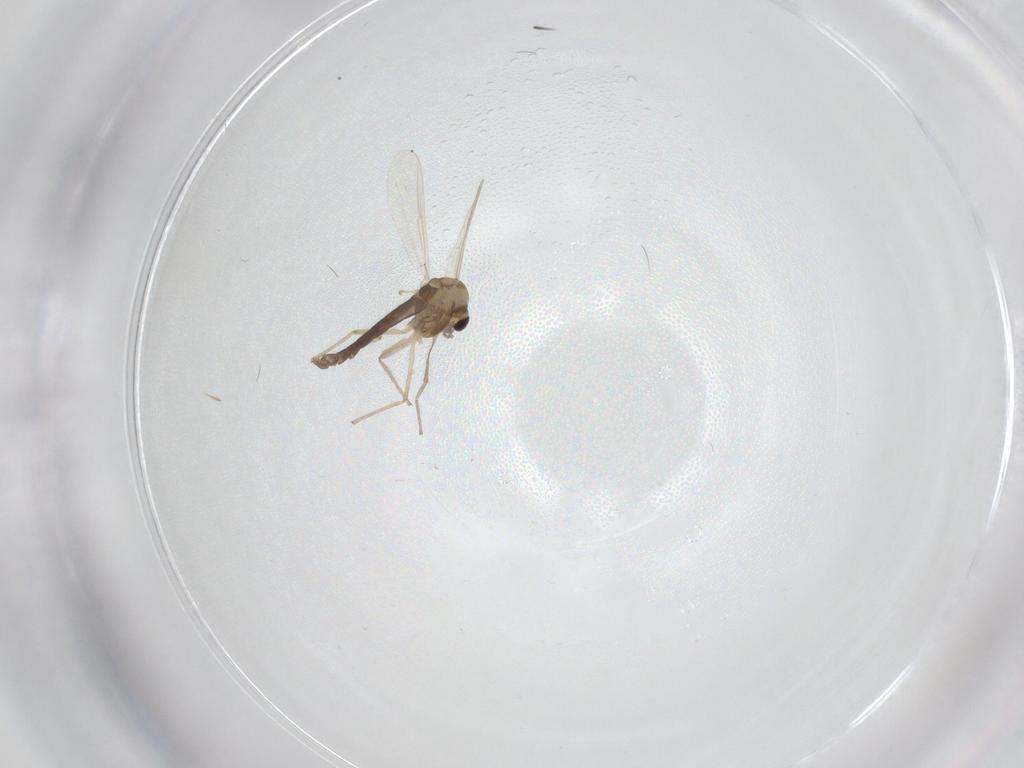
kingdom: Animalia
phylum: Arthropoda
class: Insecta
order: Diptera
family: Chironomidae
